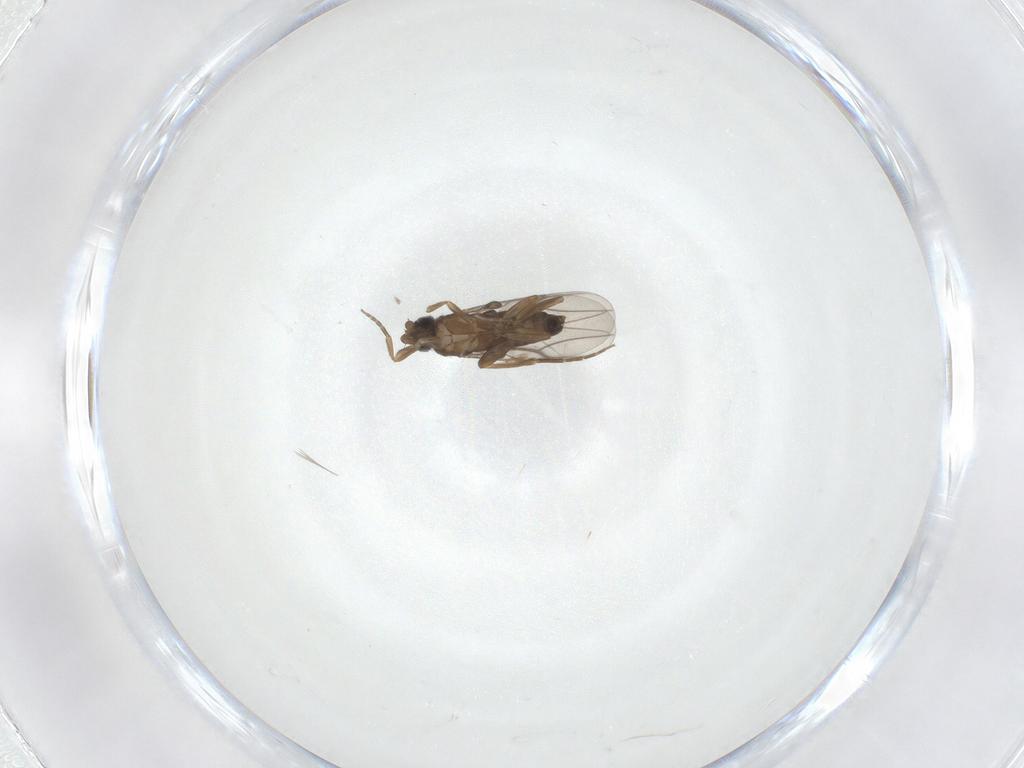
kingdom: Animalia
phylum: Arthropoda
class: Insecta
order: Diptera
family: Phoridae
